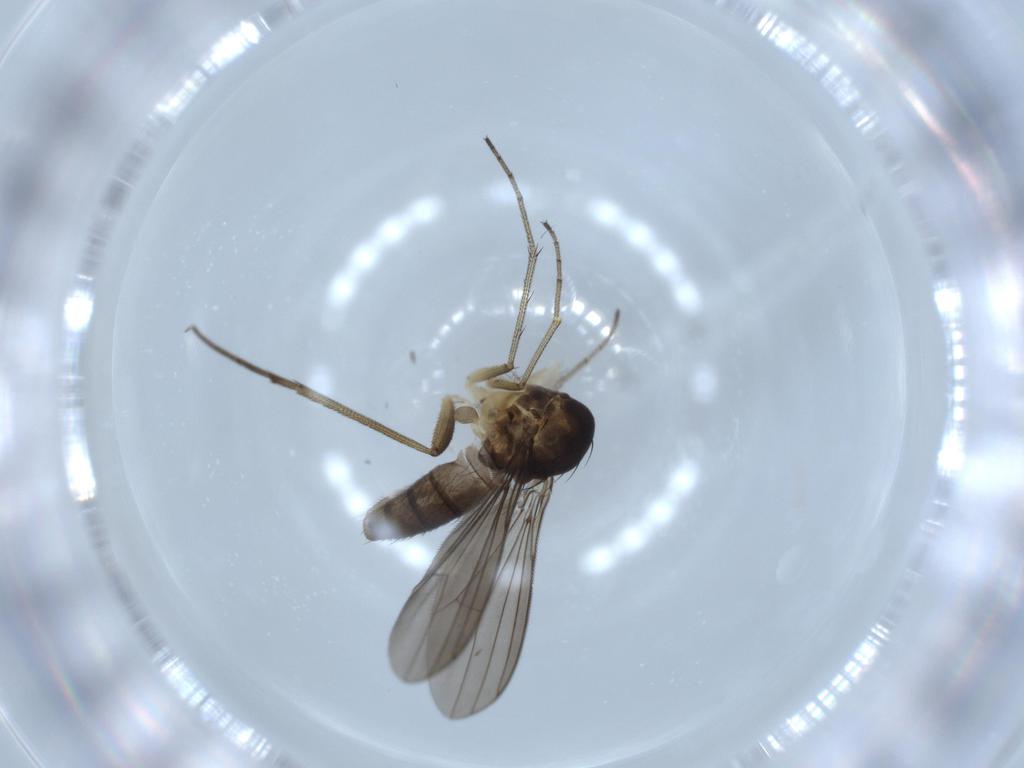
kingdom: Animalia
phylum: Arthropoda
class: Insecta
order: Diptera
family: Dolichopodidae
